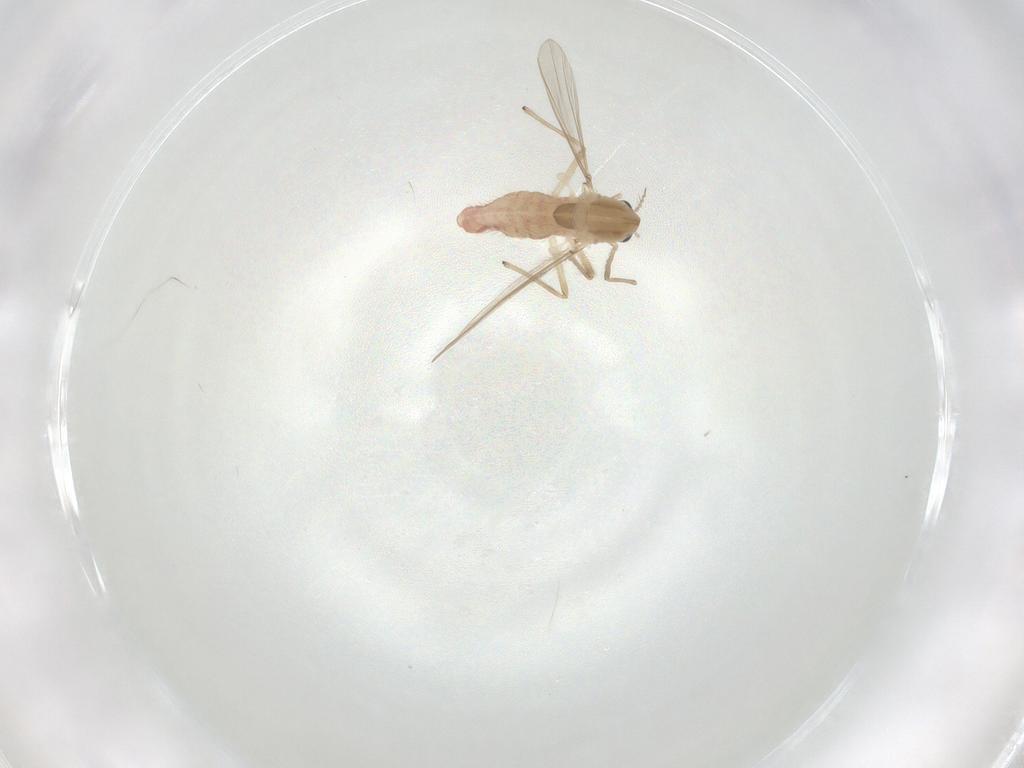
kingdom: Animalia
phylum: Arthropoda
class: Insecta
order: Diptera
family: Chironomidae
